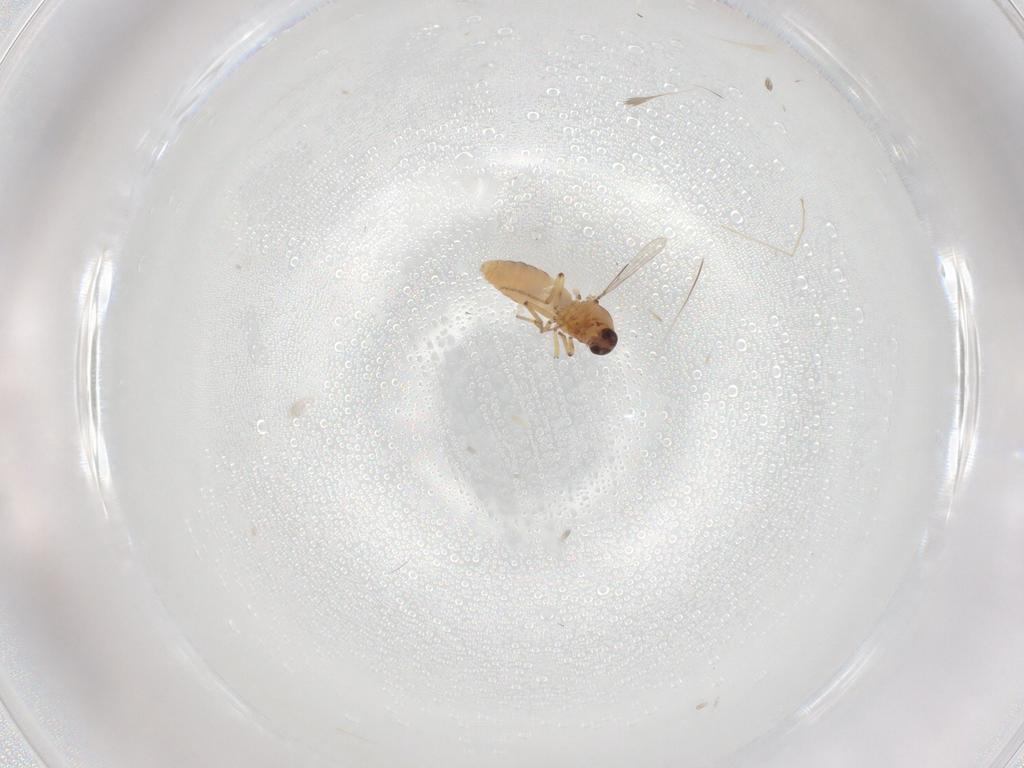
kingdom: Animalia
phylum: Arthropoda
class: Insecta
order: Diptera
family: Ceratopogonidae
